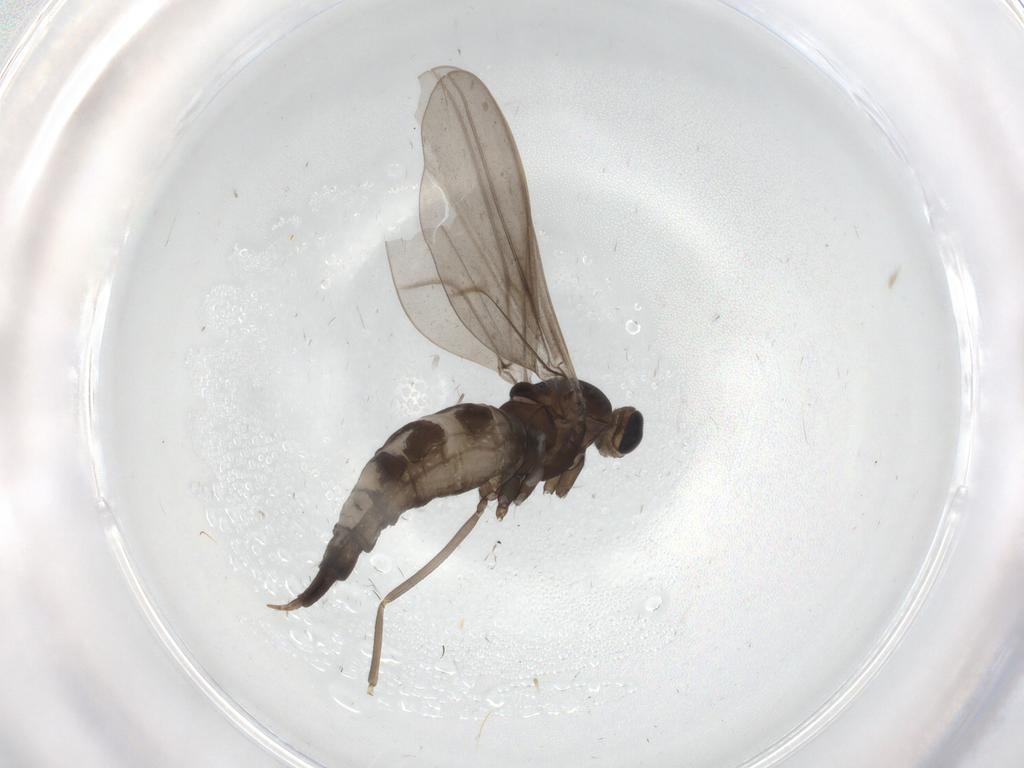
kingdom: Animalia
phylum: Arthropoda
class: Insecta
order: Diptera
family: Cecidomyiidae
